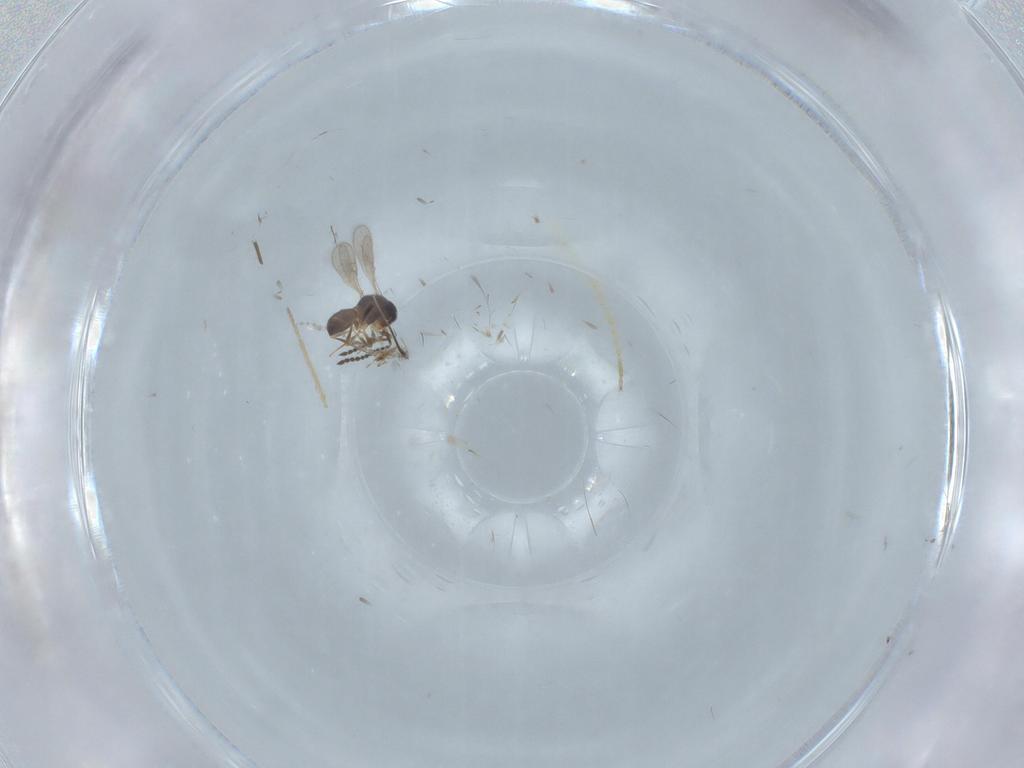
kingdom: Animalia
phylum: Arthropoda
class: Insecta
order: Hymenoptera
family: Scelionidae
